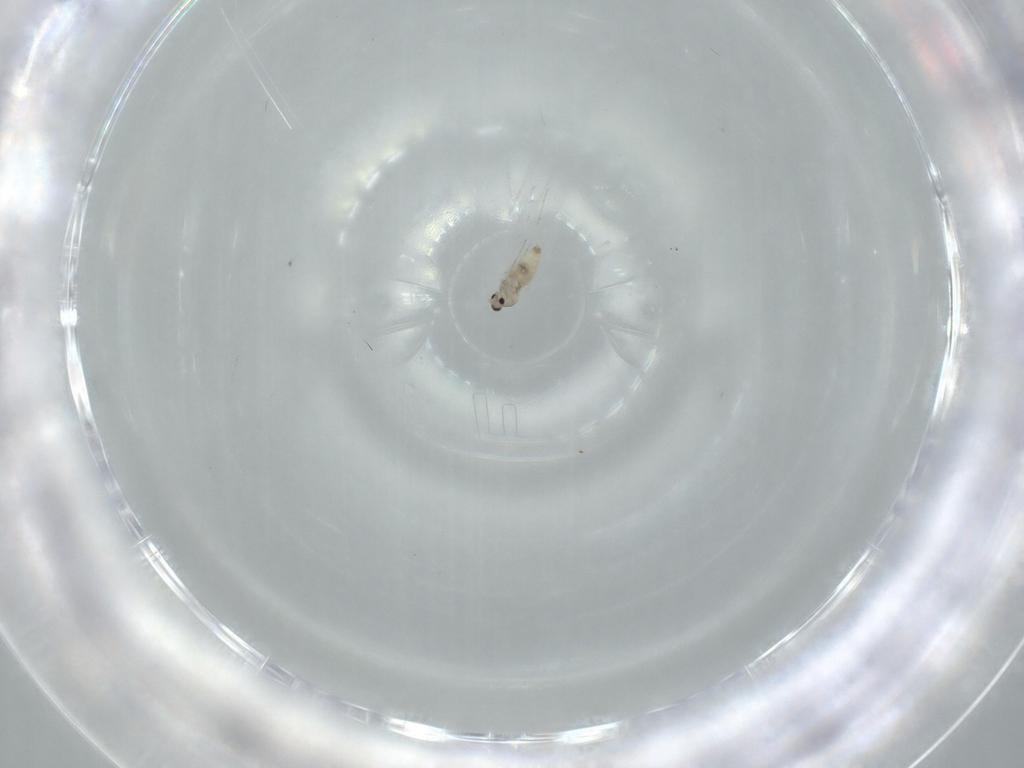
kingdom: Animalia
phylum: Arthropoda
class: Insecta
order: Diptera
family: Cecidomyiidae
